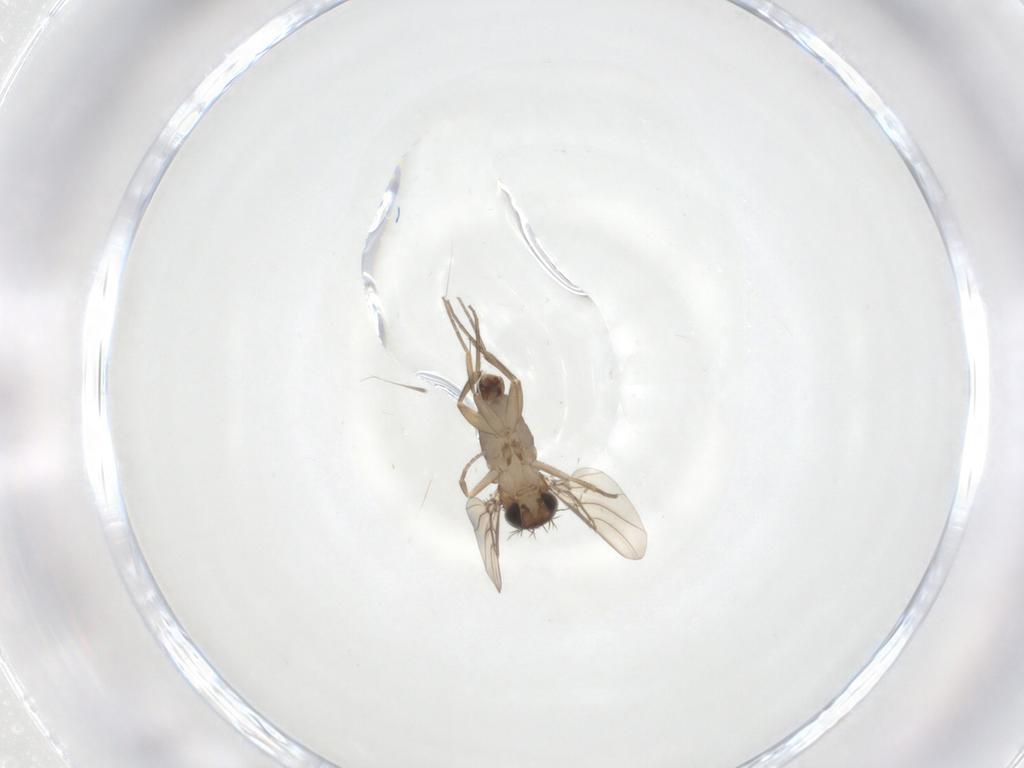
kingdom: Animalia
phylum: Arthropoda
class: Insecta
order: Diptera
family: Phoridae
